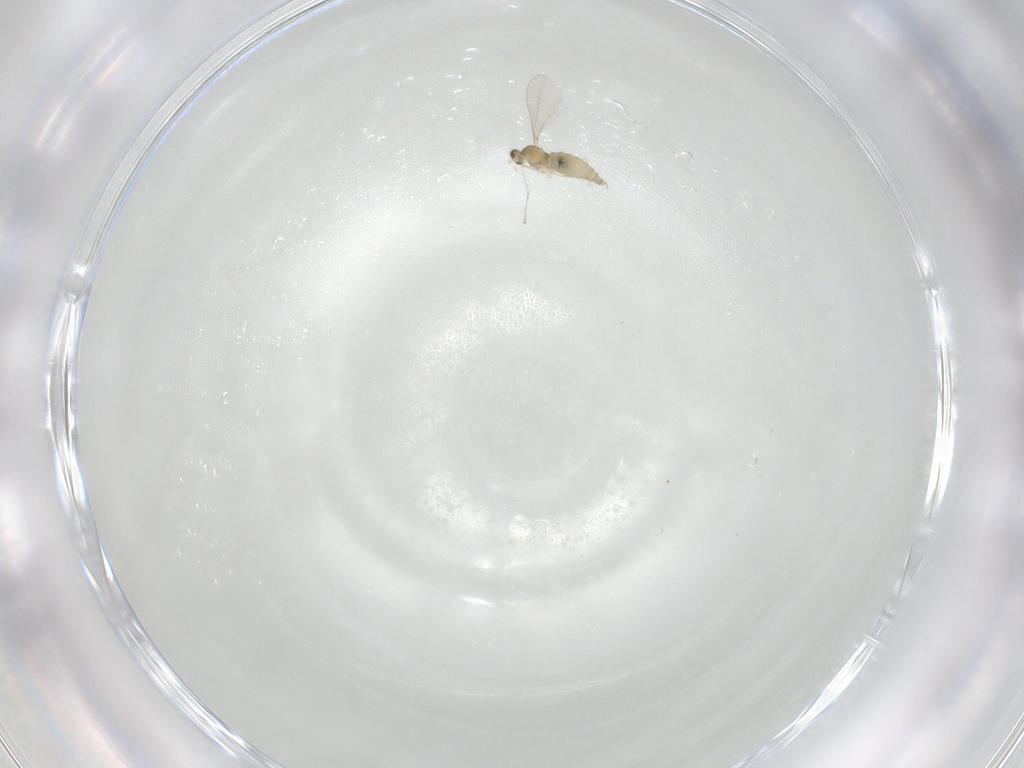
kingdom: Animalia
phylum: Arthropoda
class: Insecta
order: Diptera
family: Cecidomyiidae
